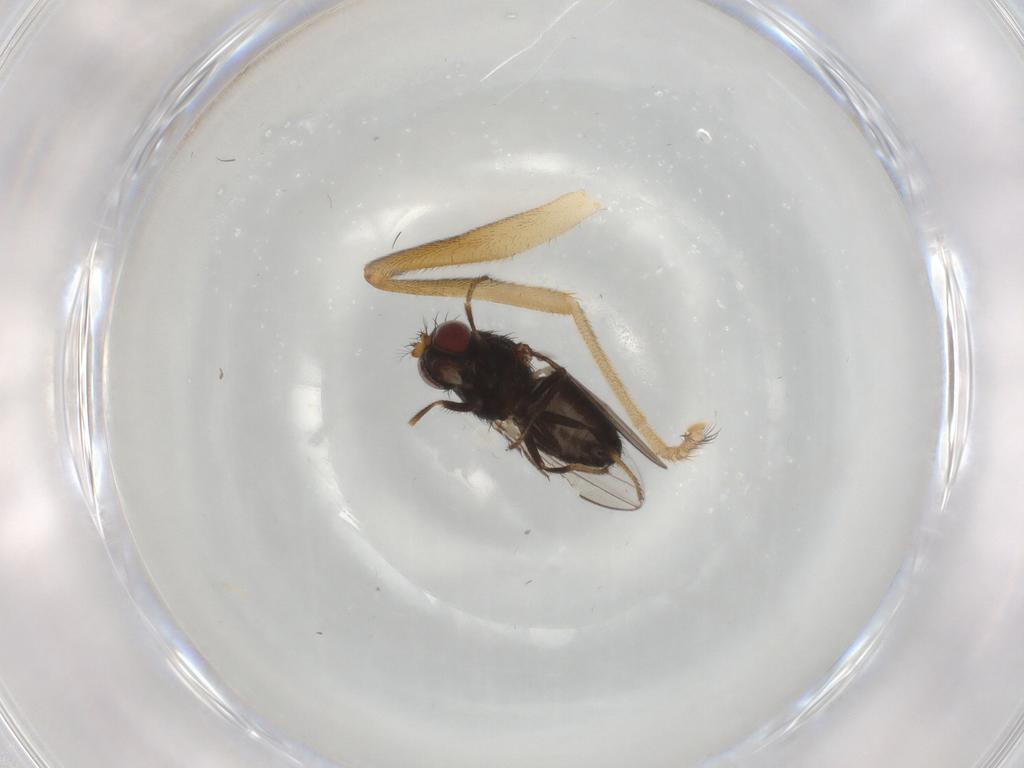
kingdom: Animalia
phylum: Arthropoda
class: Insecta
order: Diptera
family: Stratiomyidae
